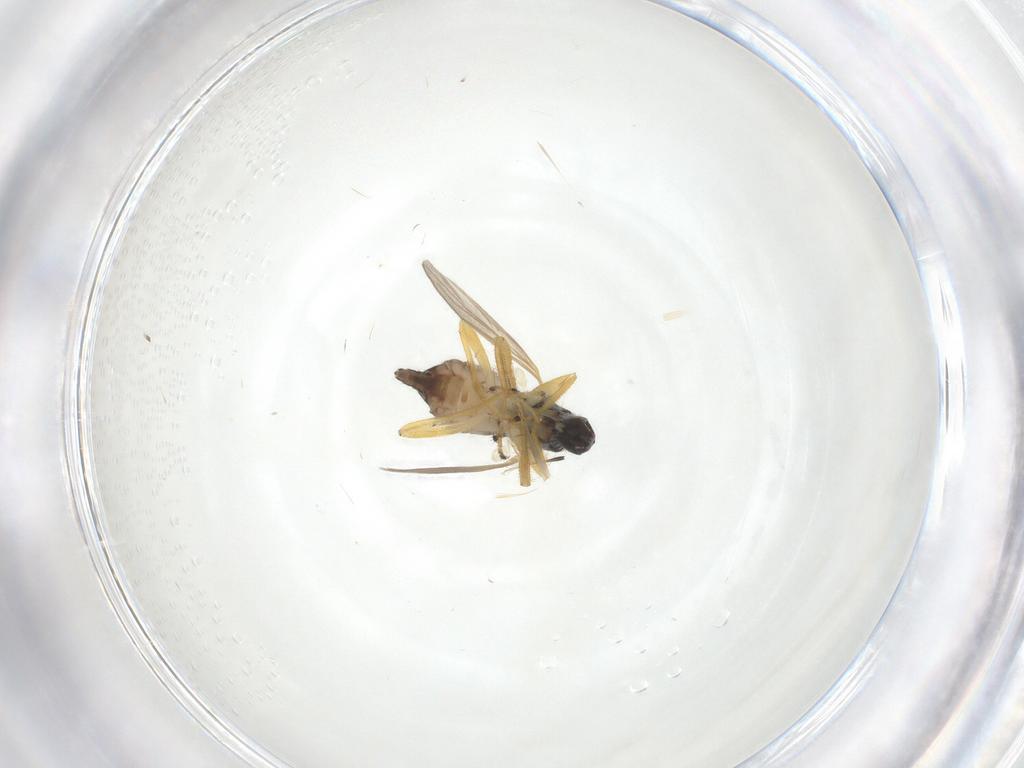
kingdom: Animalia
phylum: Arthropoda
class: Insecta
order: Diptera
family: Hybotidae
